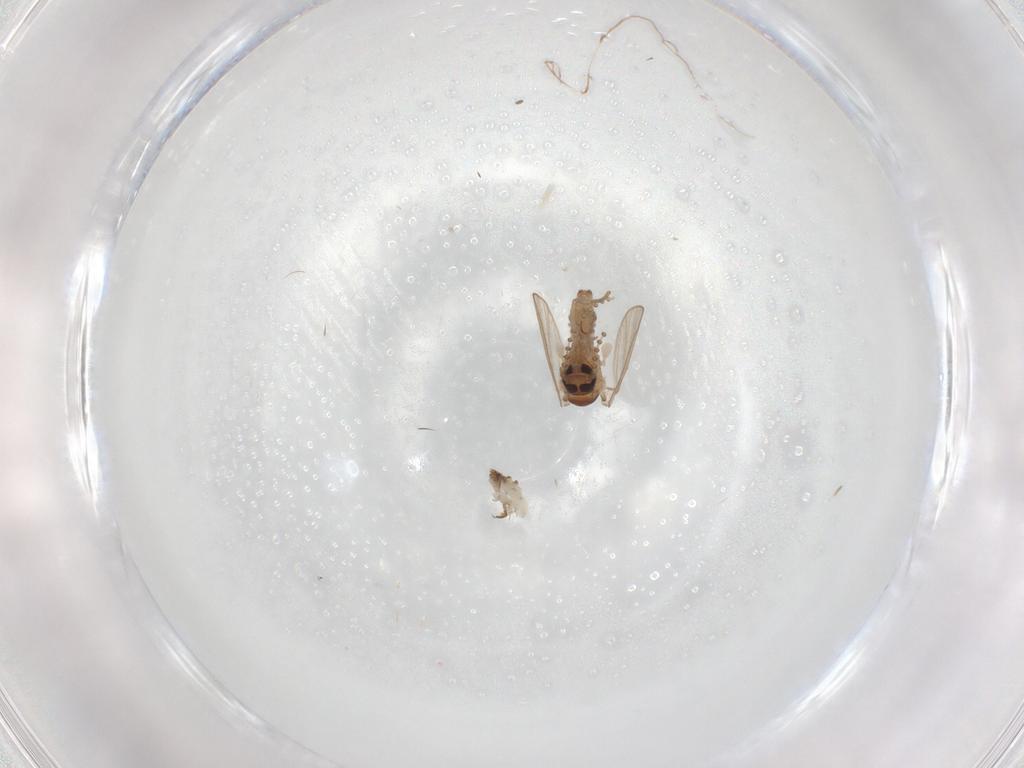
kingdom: Animalia
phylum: Arthropoda
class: Insecta
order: Diptera
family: Psychodidae
